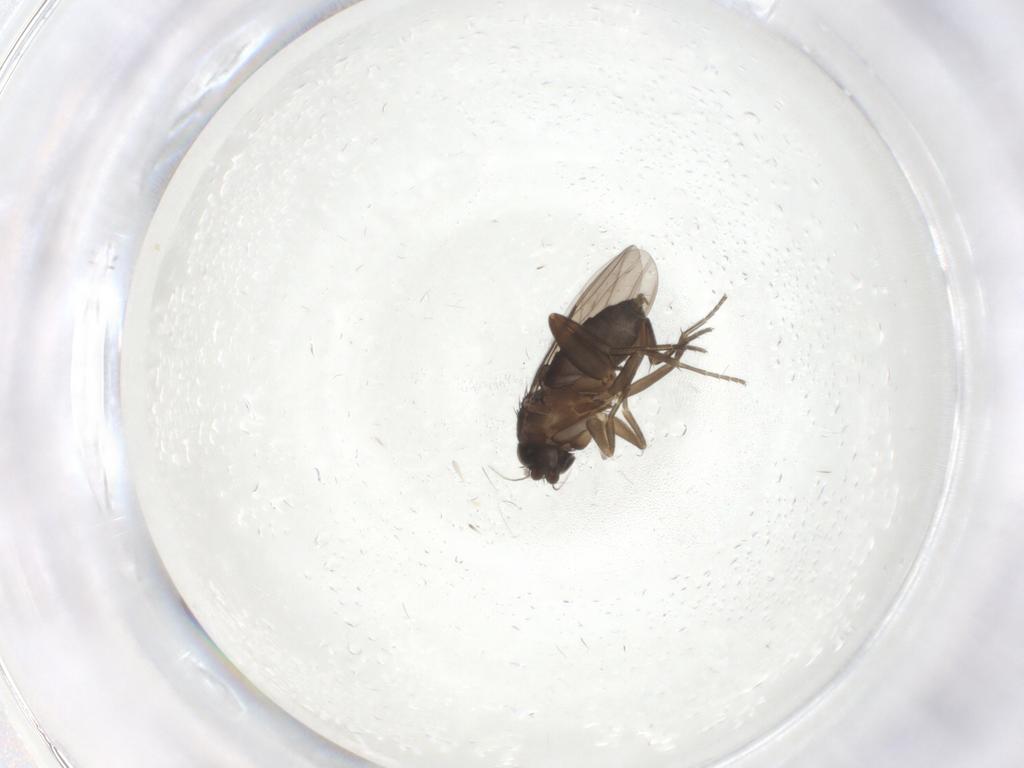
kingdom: Animalia
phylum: Arthropoda
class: Insecta
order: Diptera
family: Phoridae
